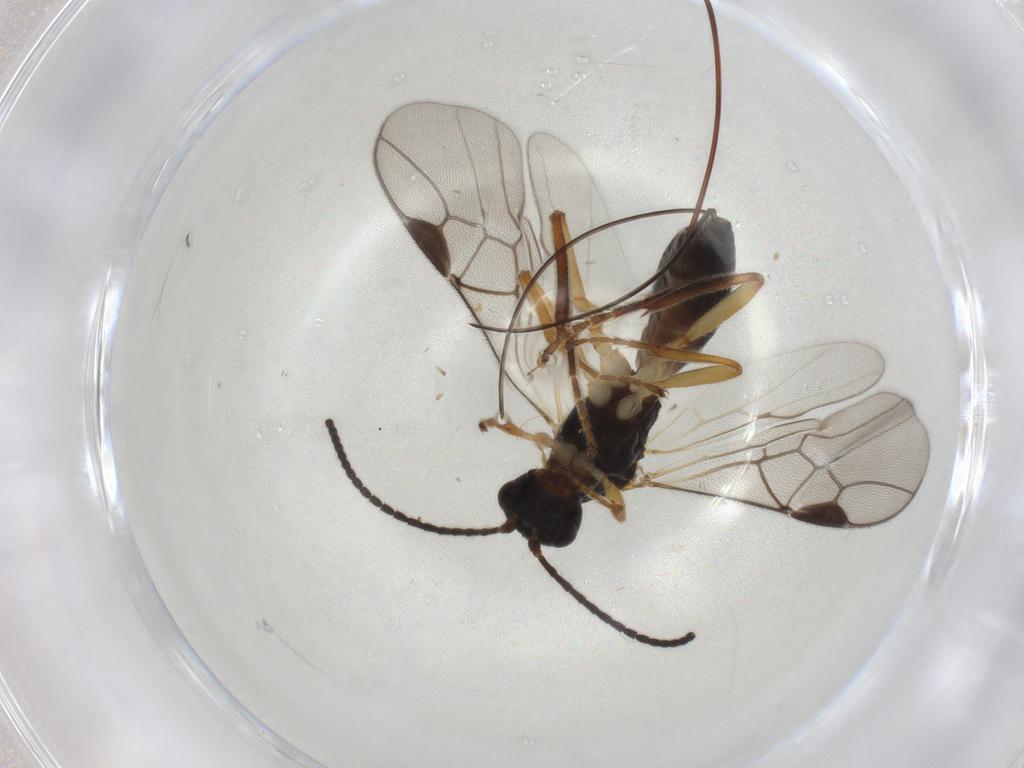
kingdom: Animalia
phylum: Arthropoda
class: Insecta
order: Hymenoptera
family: Braconidae
